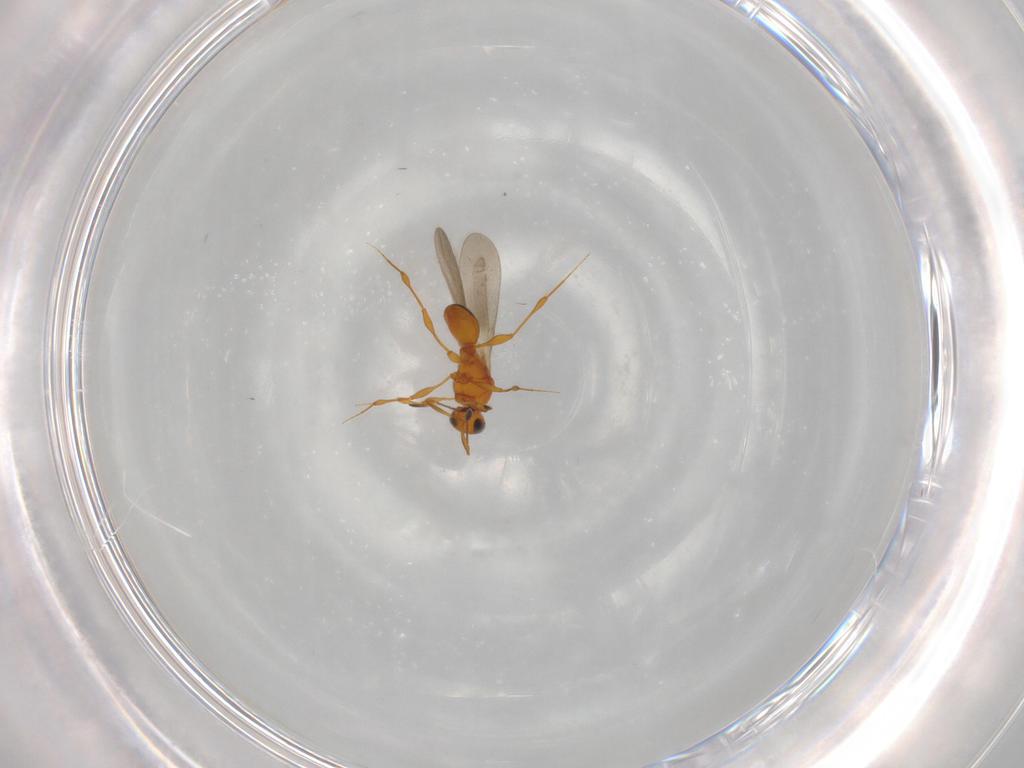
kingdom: Animalia
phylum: Arthropoda
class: Insecta
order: Hymenoptera
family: Platygastridae
